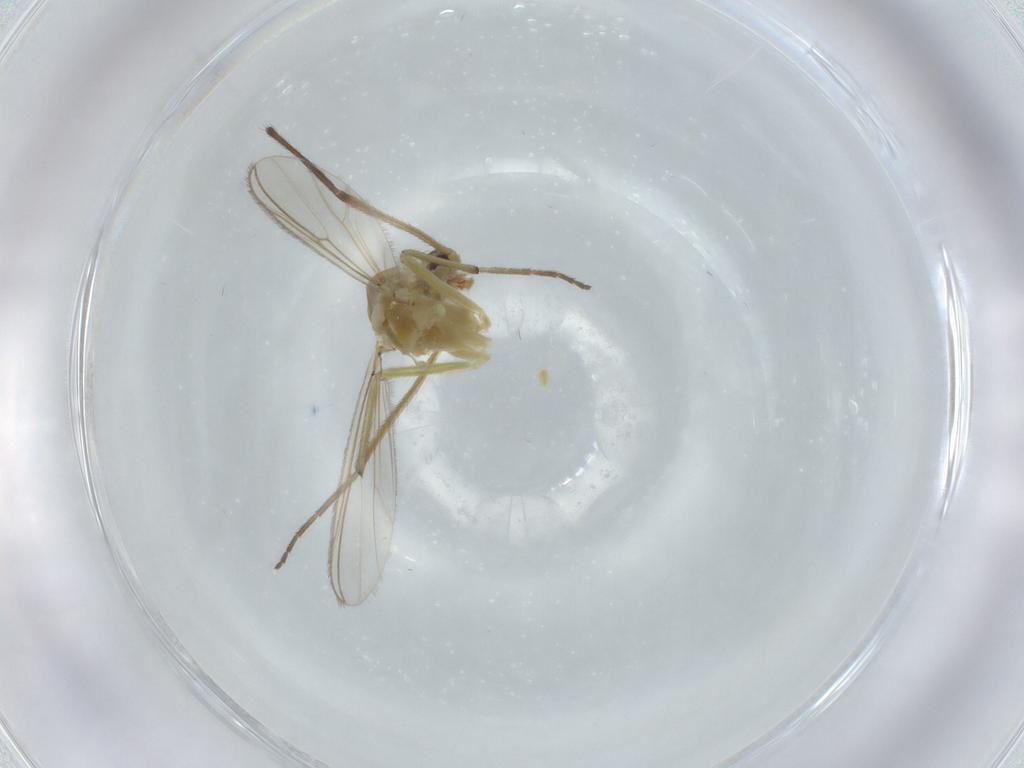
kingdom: Animalia
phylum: Arthropoda
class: Insecta
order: Diptera
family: Chironomidae
